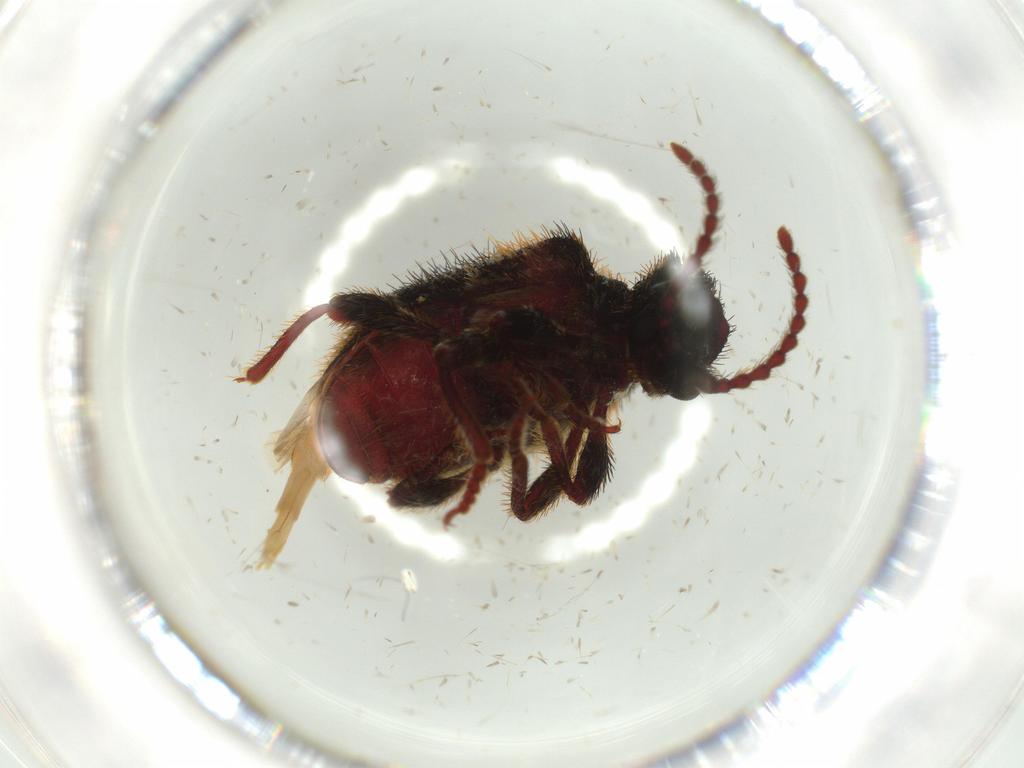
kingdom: Animalia
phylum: Arthropoda
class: Insecta
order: Coleoptera
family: Chrysomelidae
